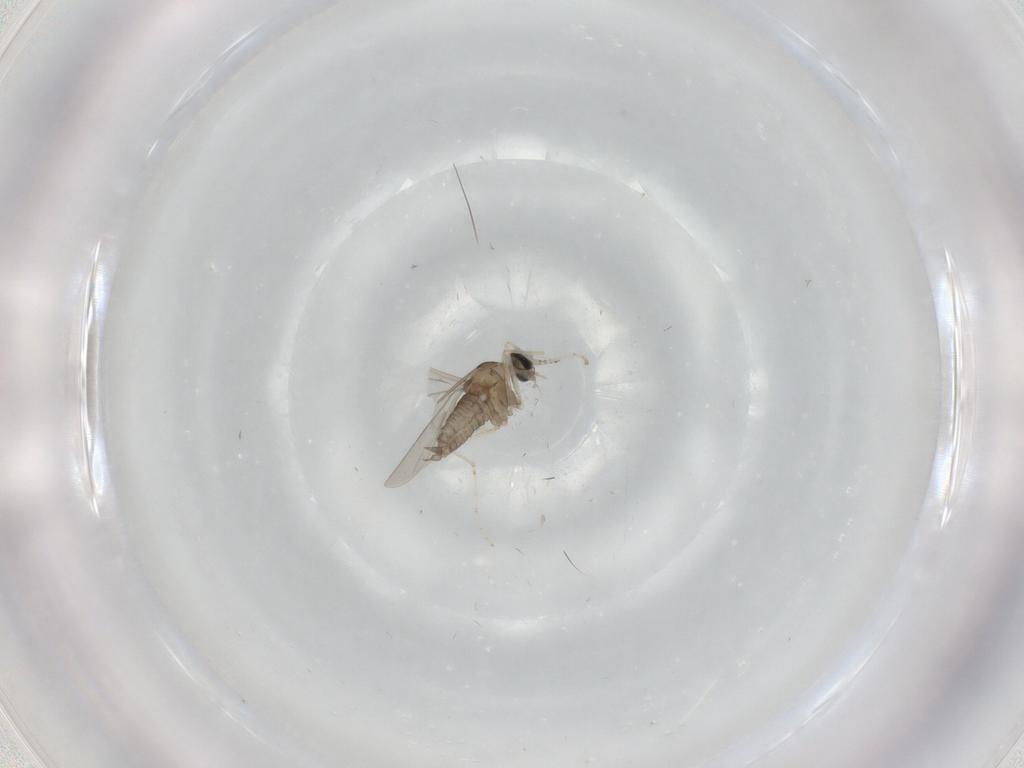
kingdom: Animalia
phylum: Arthropoda
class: Insecta
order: Diptera
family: Cecidomyiidae
